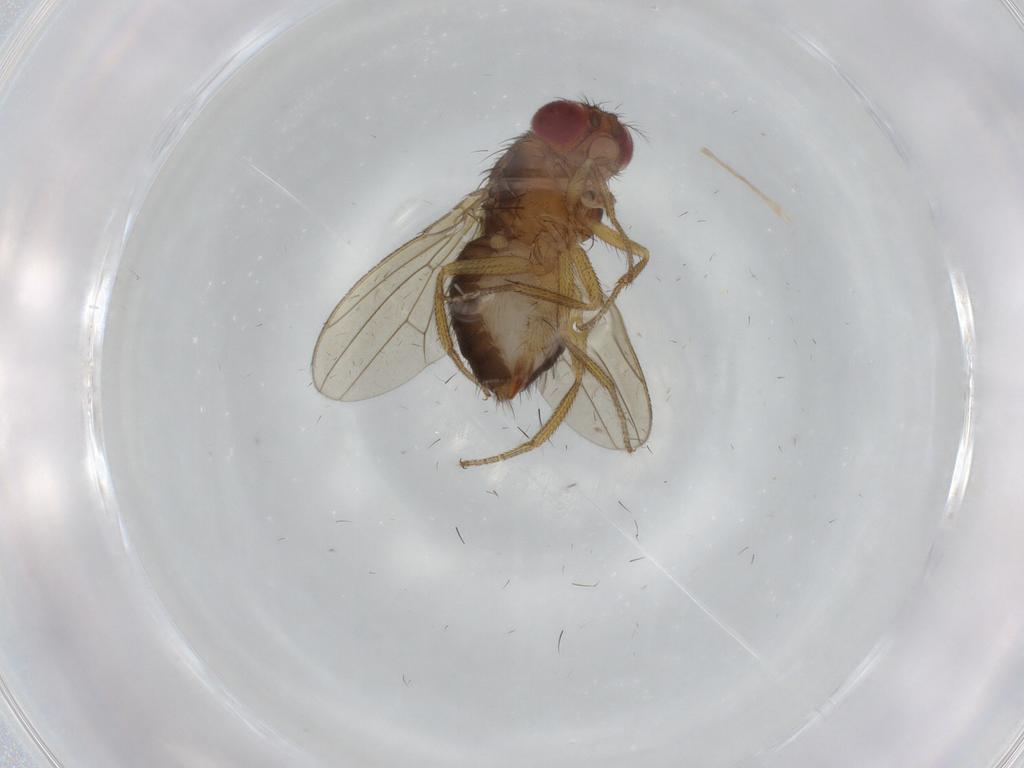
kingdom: Animalia
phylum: Arthropoda
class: Insecta
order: Diptera
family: Drosophilidae
